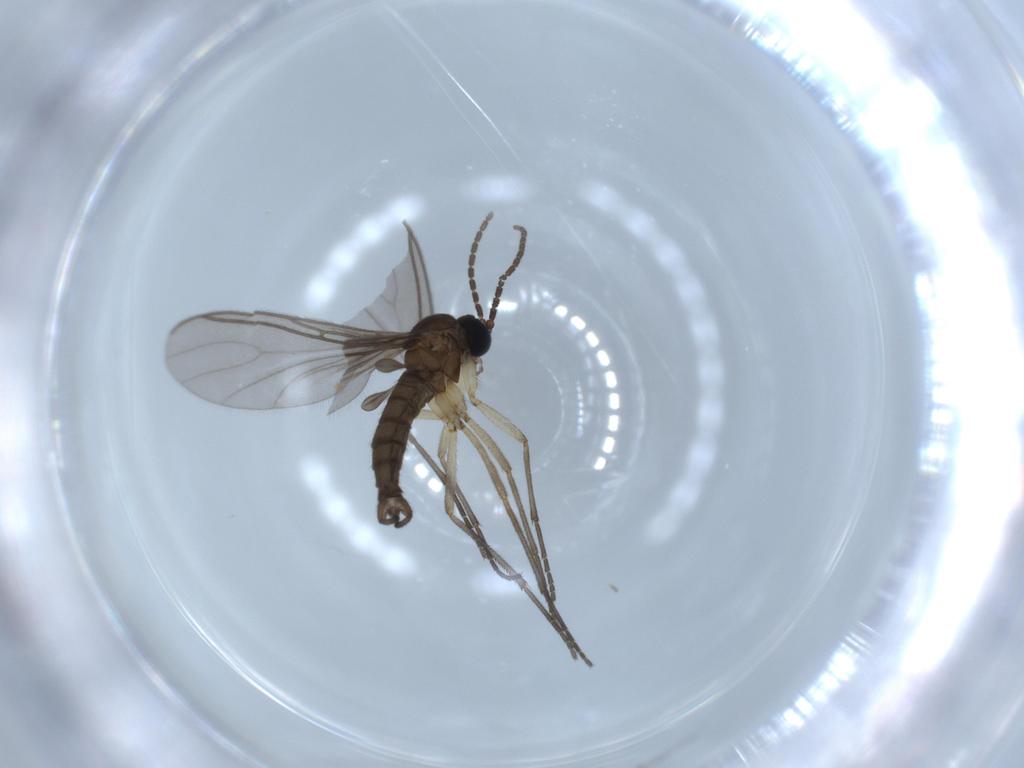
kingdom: Animalia
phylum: Arthropoda
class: Insecta
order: Diptera
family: Sciaridae
